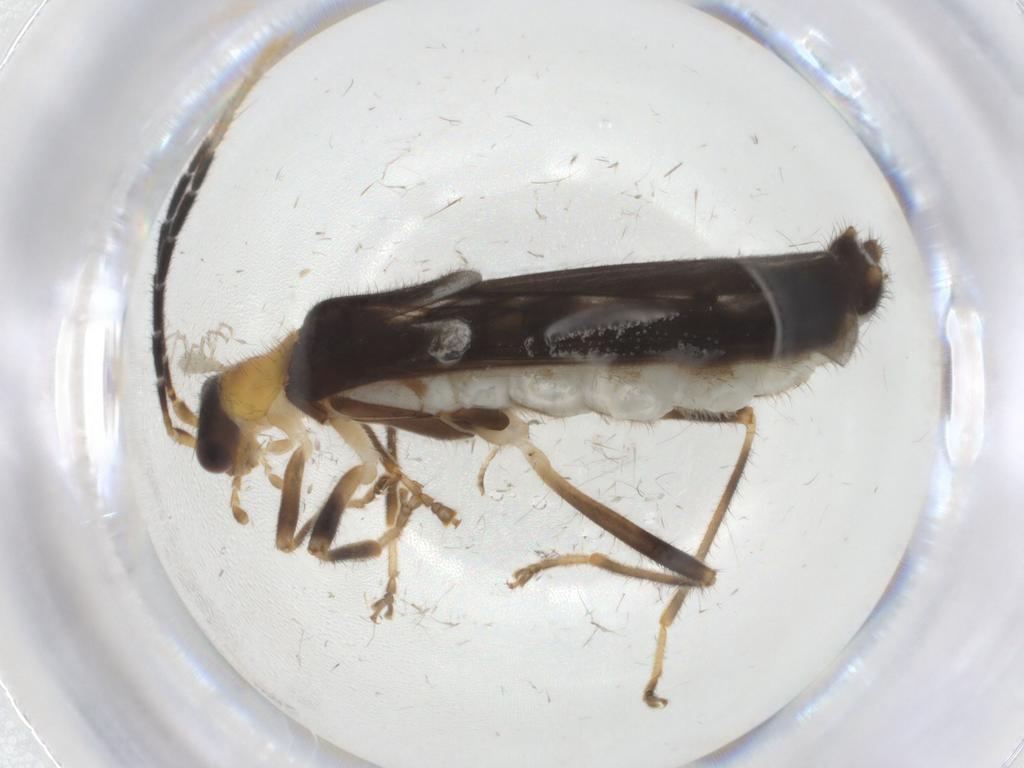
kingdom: Animalia
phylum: Arthropoda
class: Insecta
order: Coleoptera
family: Cantharidae
